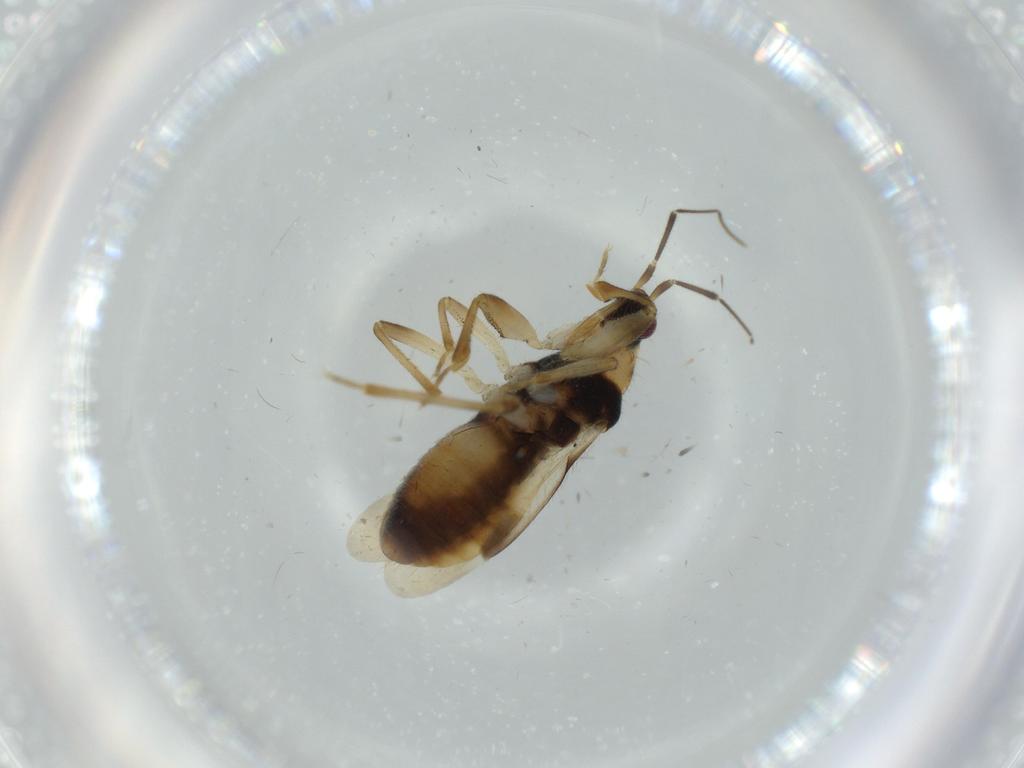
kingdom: Animalia
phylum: Arthropoda
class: Insecta
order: Hemiptera
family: Nabidae
